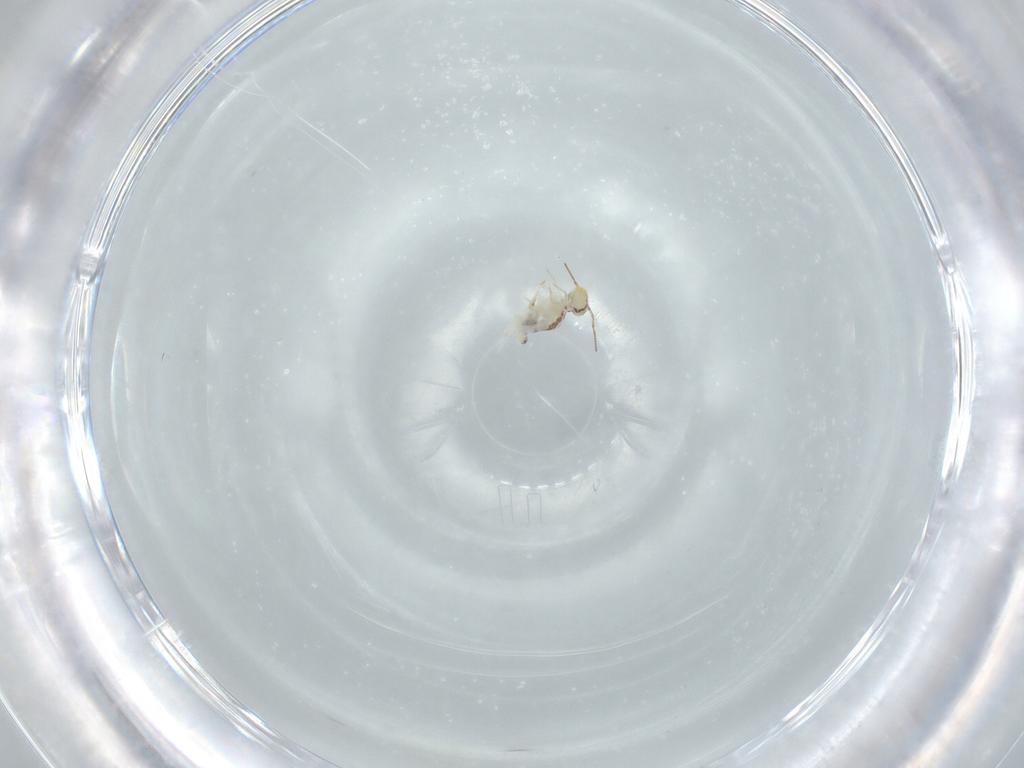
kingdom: Animalia
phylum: Arthropoda
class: Collembola
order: Symphypleona
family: Bourletiellidae
